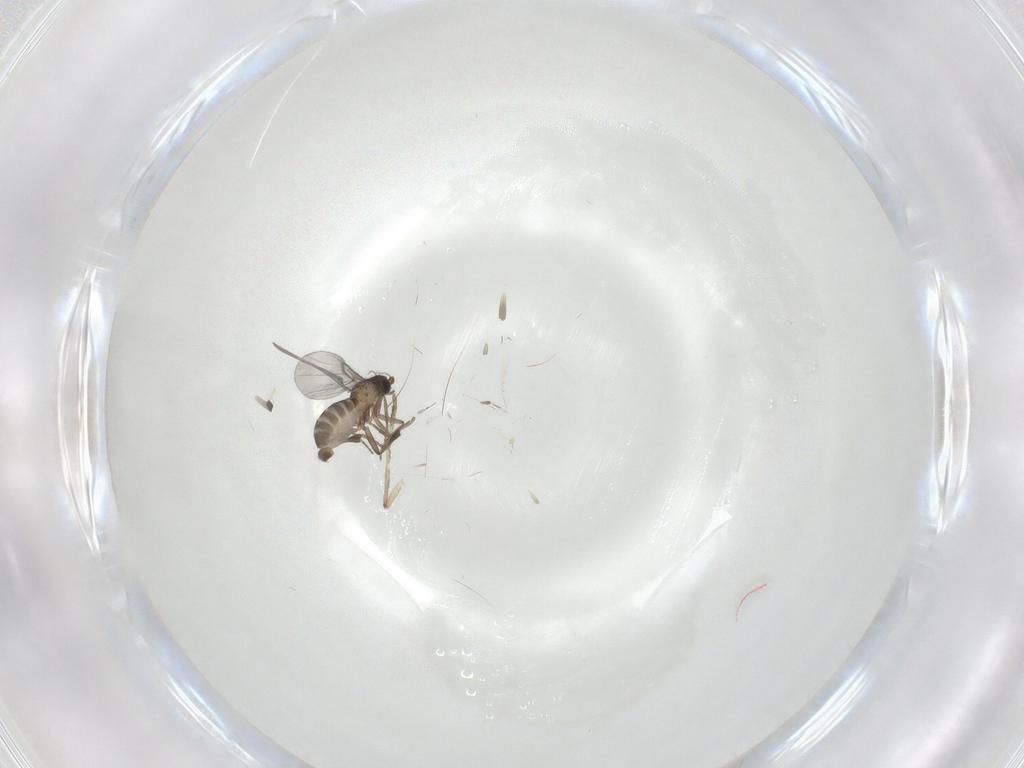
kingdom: Animalia
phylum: Arthropoda
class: Insecta
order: Diptera
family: Phoridae
